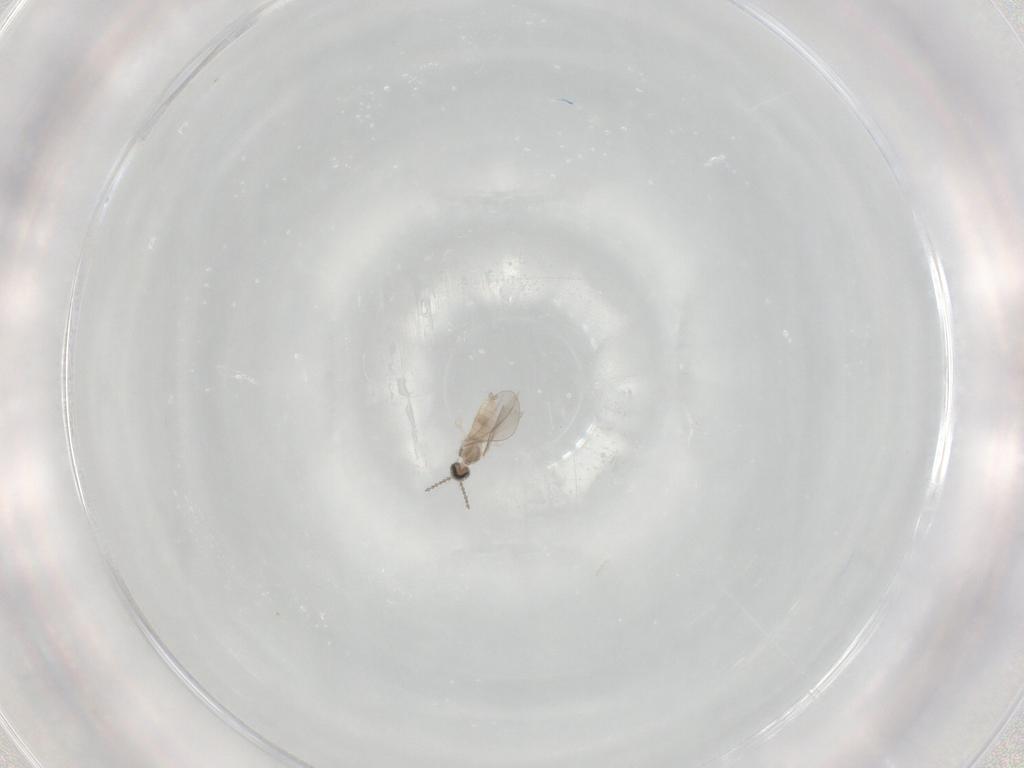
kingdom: Animalia
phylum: Arthropoda
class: Insecta
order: Diptera
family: Cecidomyiidae
